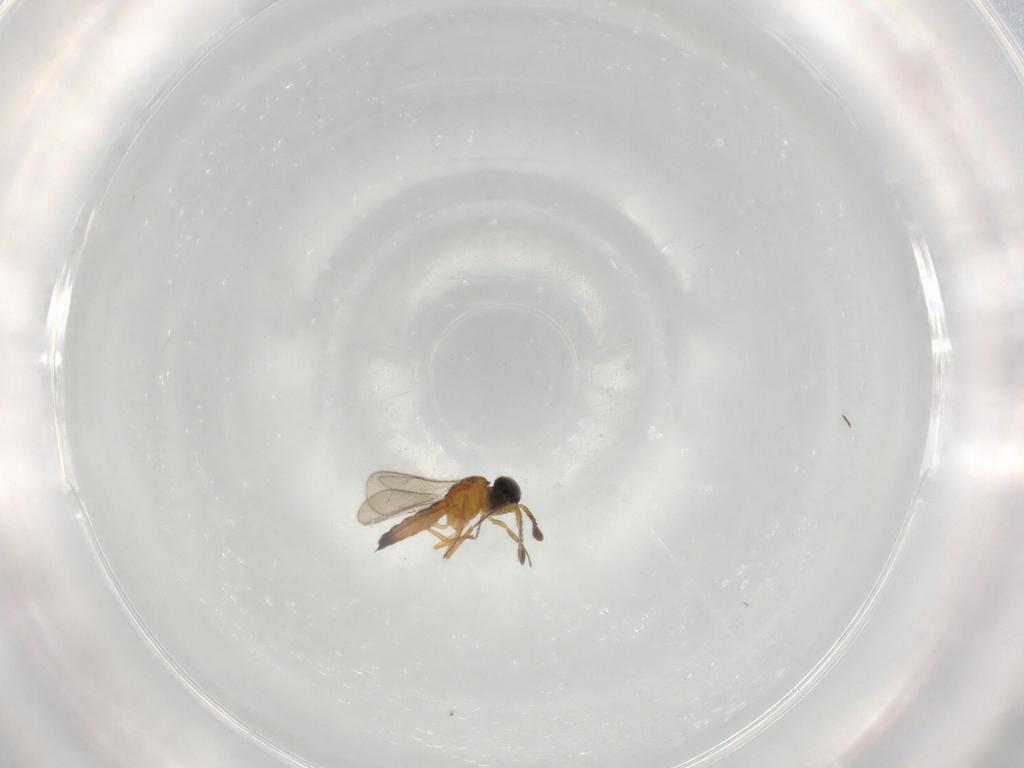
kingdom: Animalia
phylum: Arthropoda
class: Insecta
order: Hymenoptera
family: Scelionidae
